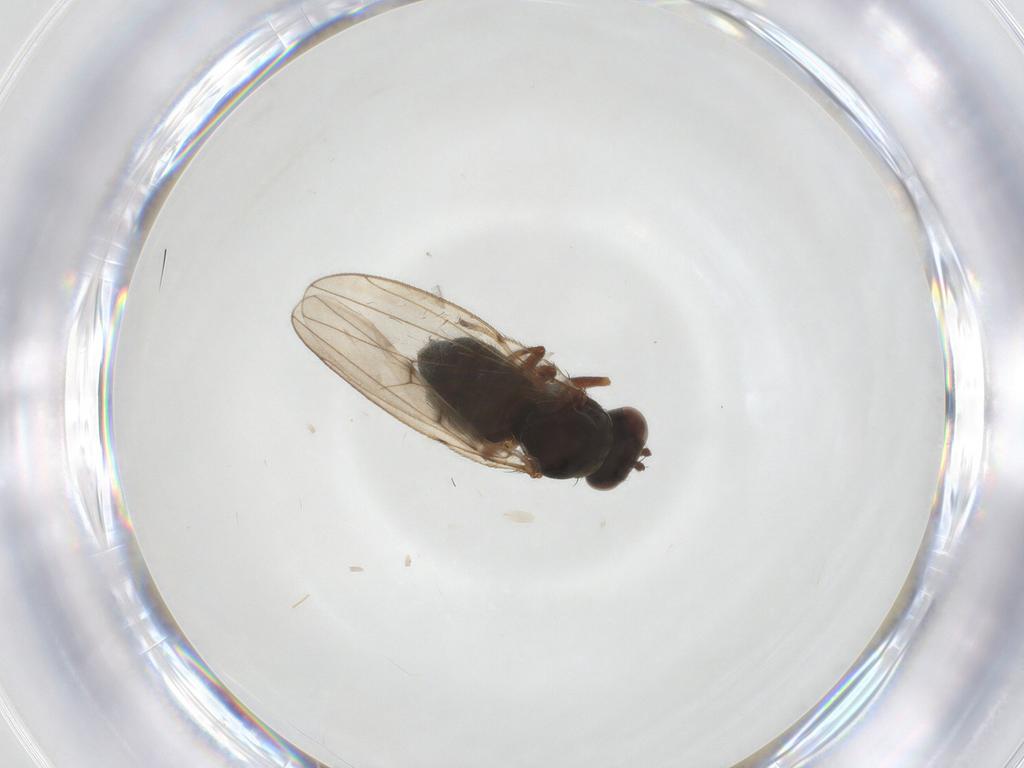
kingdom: Animalia
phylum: Arthropoda
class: Insecta
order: Diptera
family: Ephydridae
